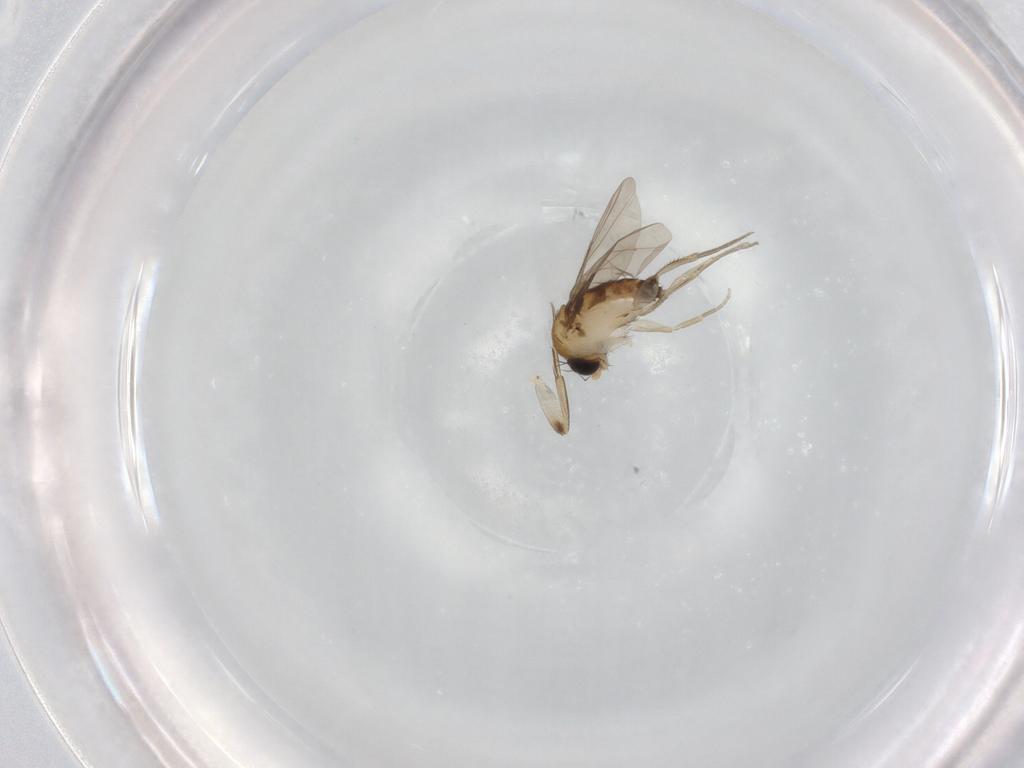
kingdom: Animalia
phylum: Arthropoda
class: Insecta
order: Diptera
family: Phoridae
